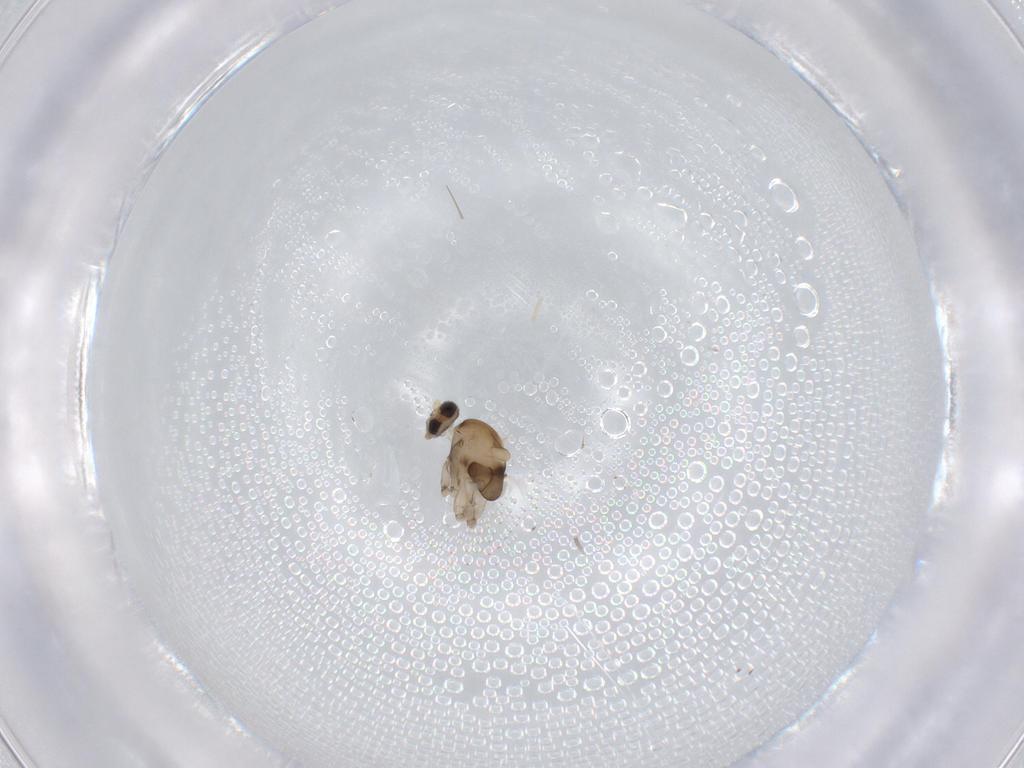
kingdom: Animalia
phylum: Arthropoda
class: Insecta
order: Diptera
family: Cecidomyiidae
